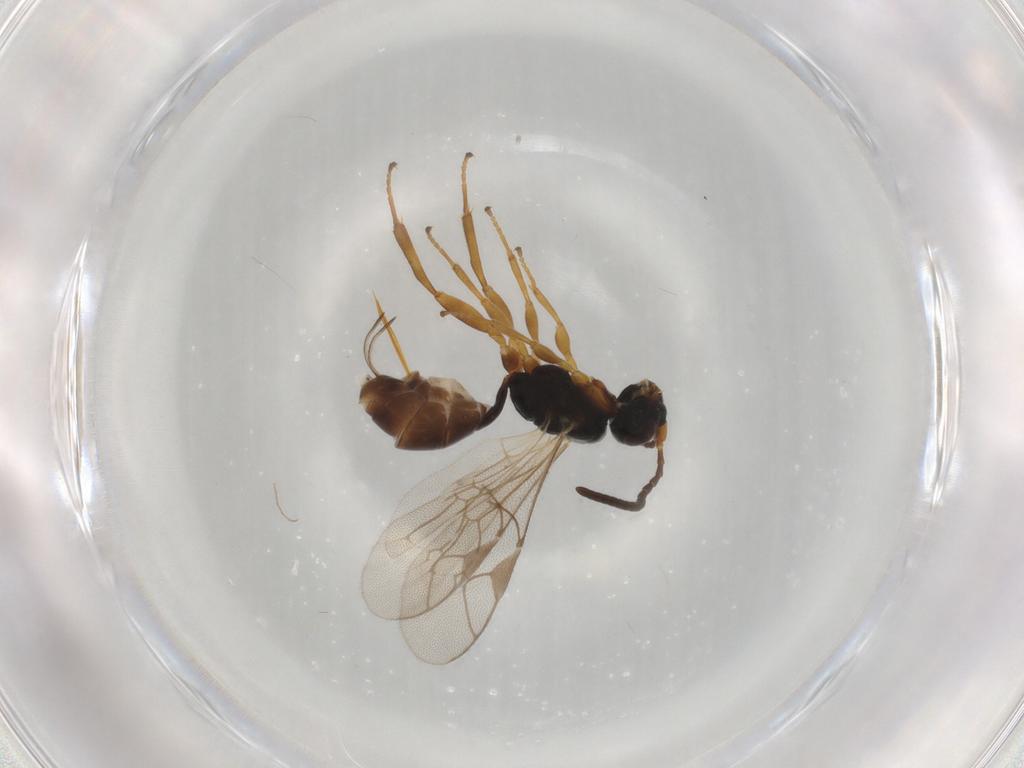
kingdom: Animalia
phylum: Arthropoda
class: Insecta
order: Hymenoptera
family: Ichneumonidae
